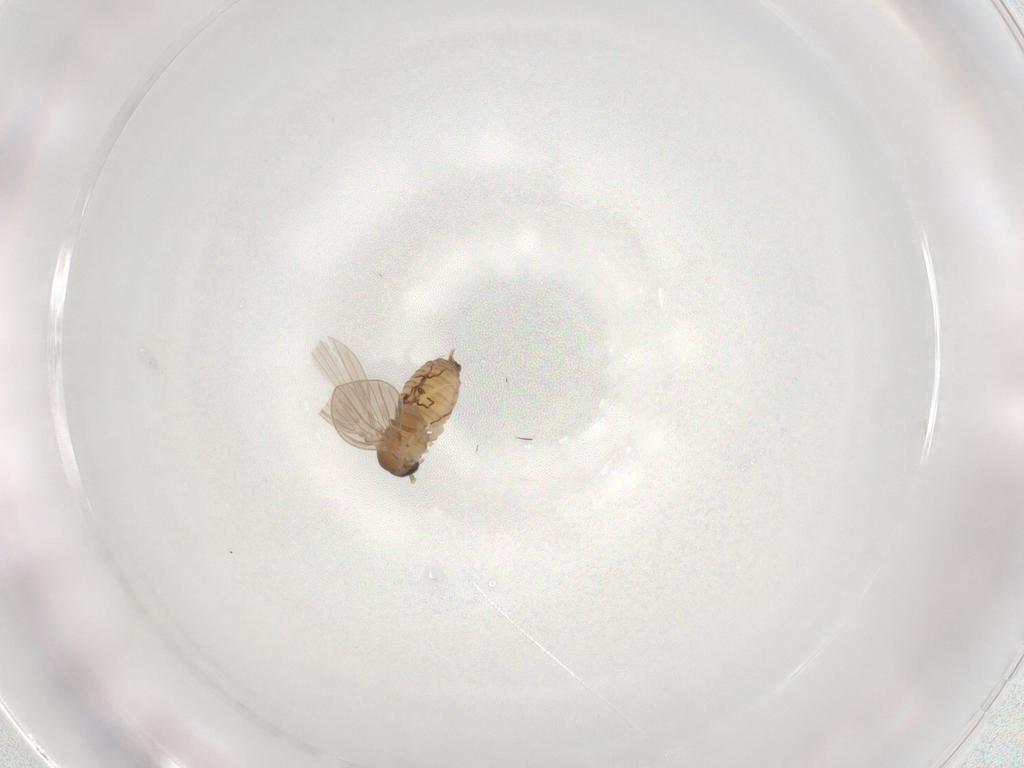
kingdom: Animalia
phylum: Arthropoda
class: Insecta
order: Diptera
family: Psychodidae
